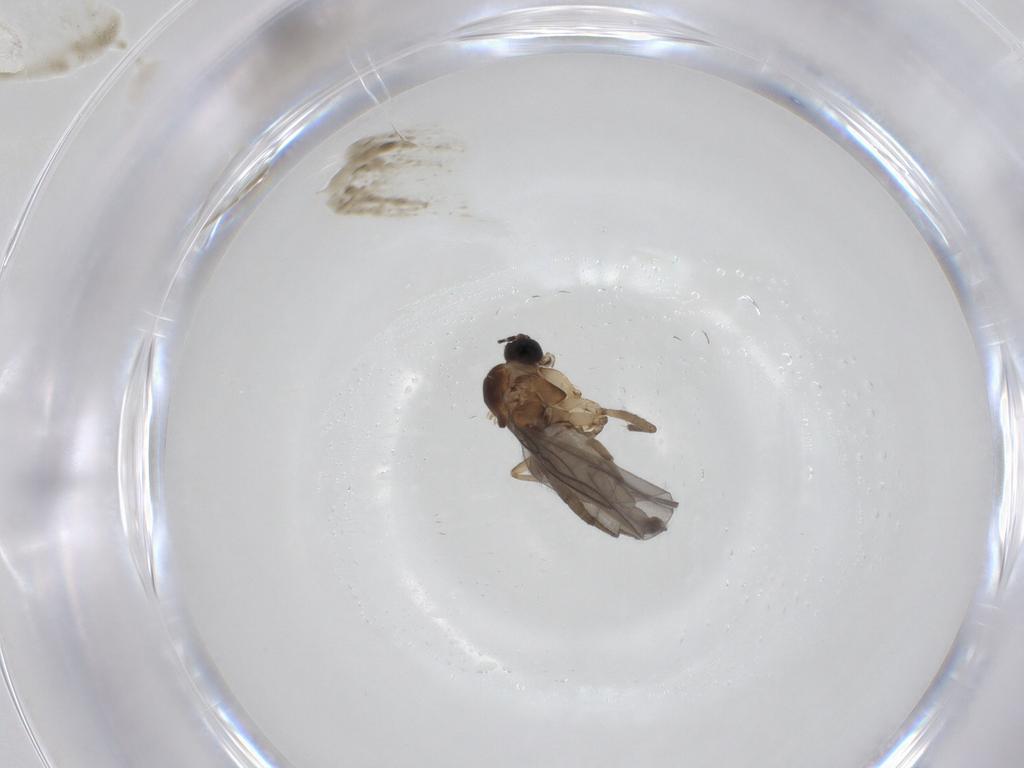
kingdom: Animalia
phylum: Arthropoda
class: Insecta
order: Diptera
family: Sciaridae
